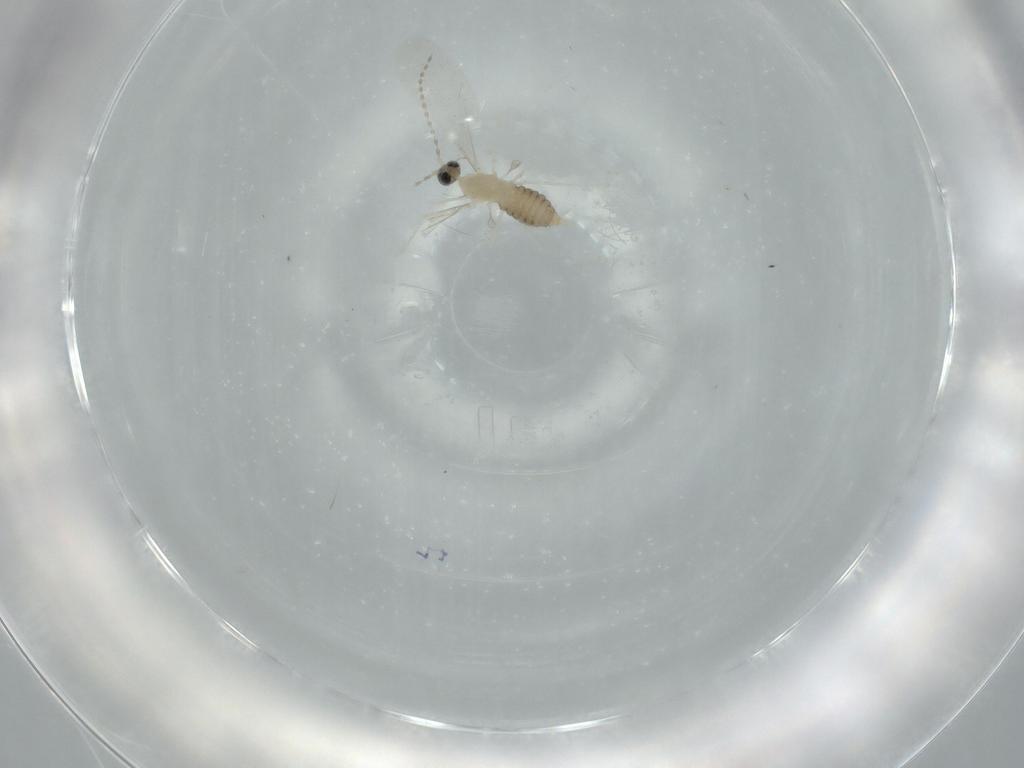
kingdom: Animalia
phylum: Arthropoda
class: Insecta
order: Diptera
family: Cecidomyiidae
